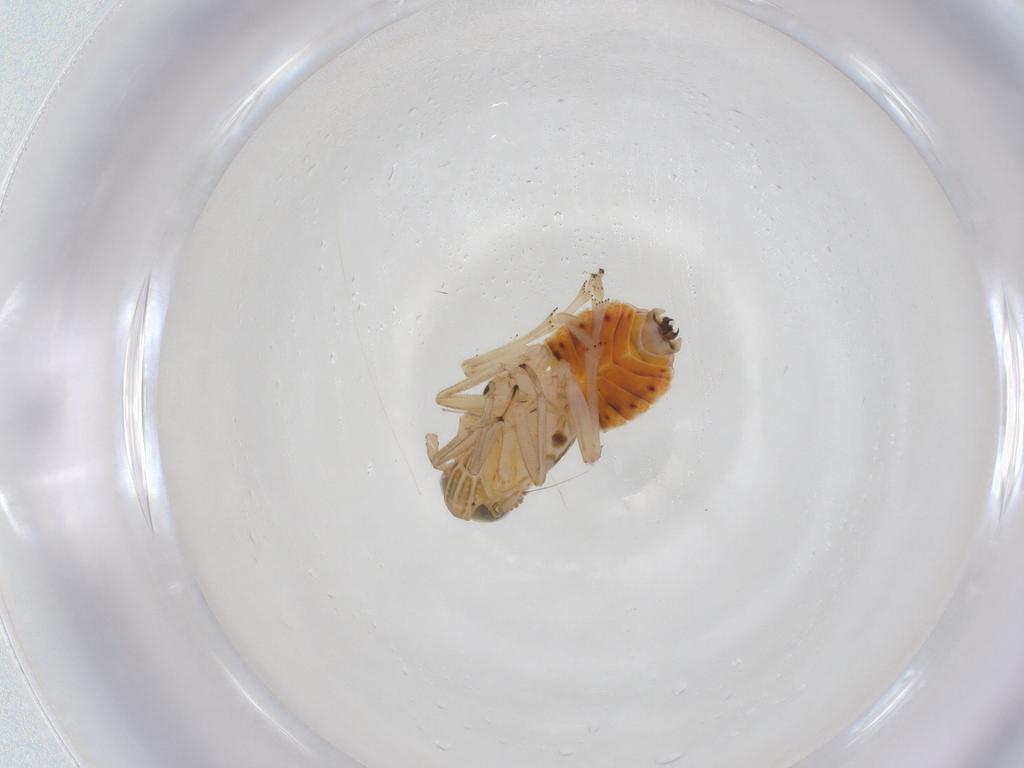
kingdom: Animalia
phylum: Arthropoda
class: Insecta
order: Hemiptera
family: Delphacidae
